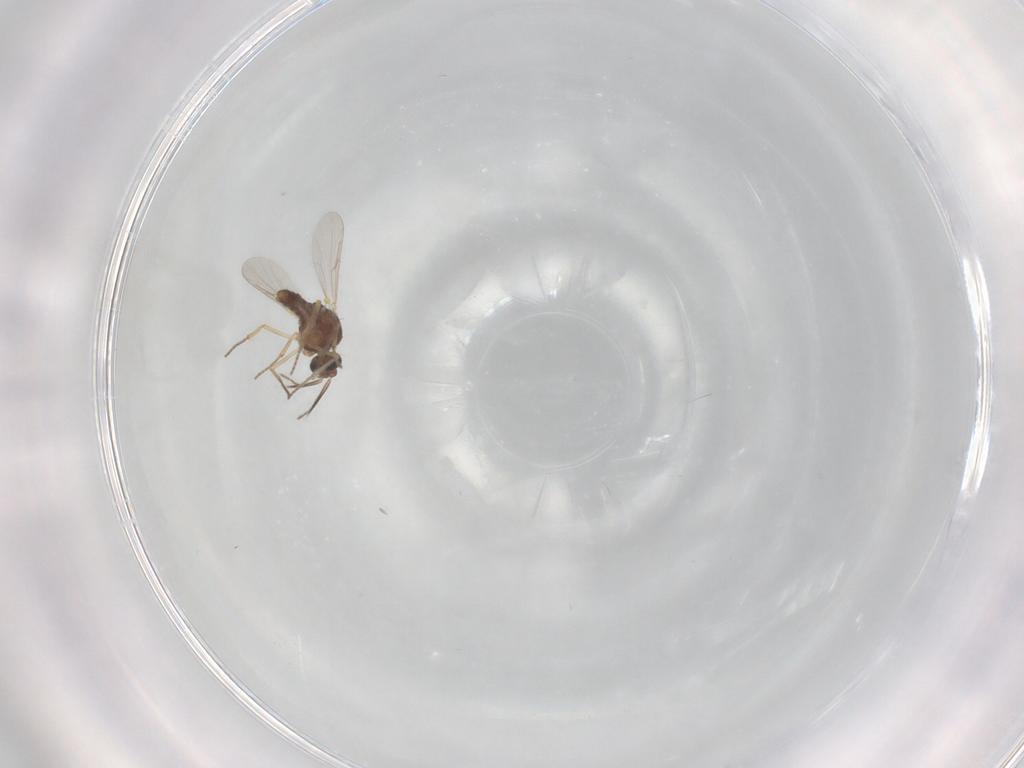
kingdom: Animalia
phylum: Arthropoda
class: Insecta
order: Diptera
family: Ceratopogonidae
